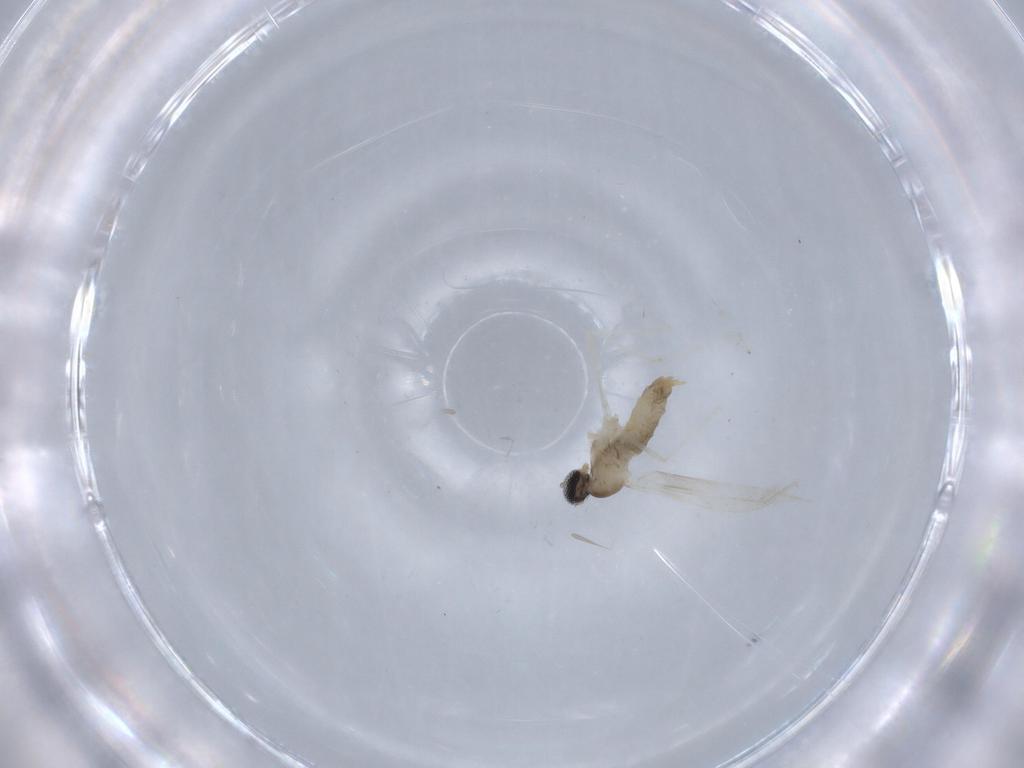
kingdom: Animalia
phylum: Arthropoda
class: Insecta
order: Diptera
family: Cecidomyiidae
